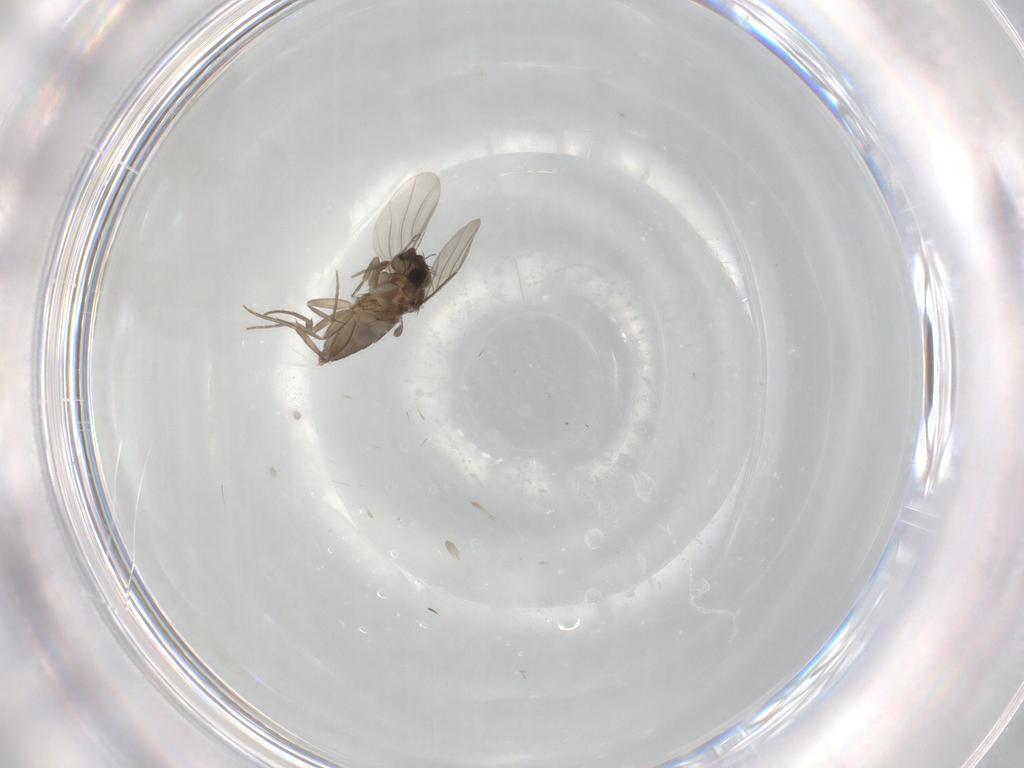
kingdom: Animalia
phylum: Arthropoda
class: Insecta
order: Diptera
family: Phoridae
